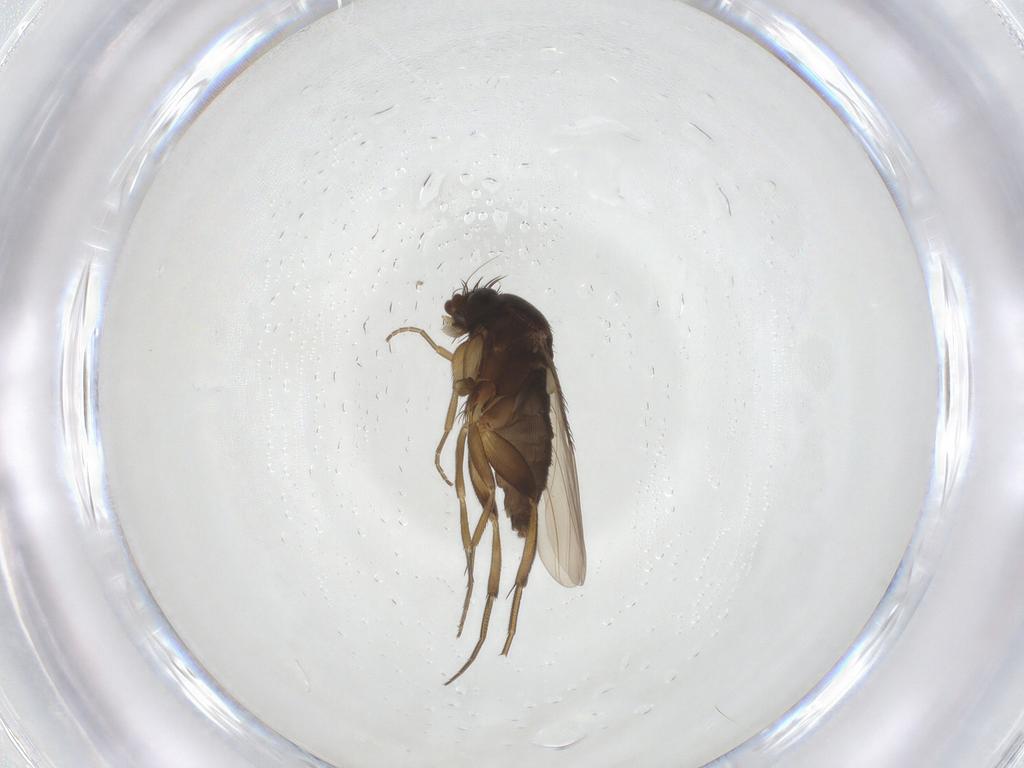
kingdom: Animalia
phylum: Arthropoda
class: Insecta
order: Diptera
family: Phoridae
